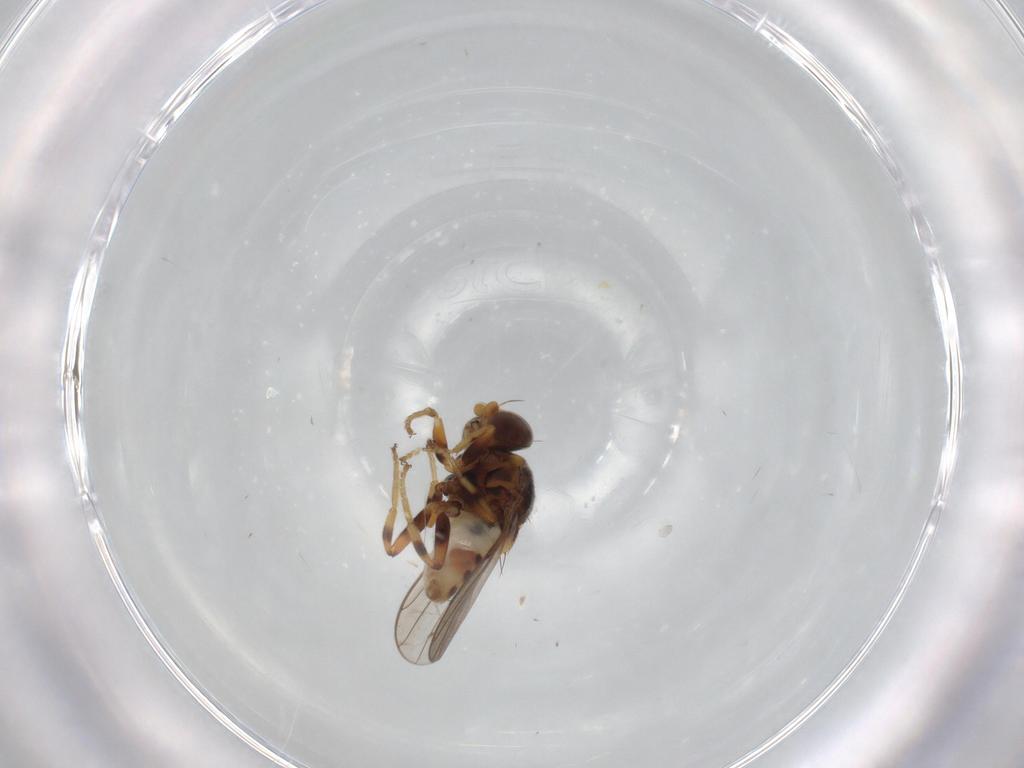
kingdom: Animalia
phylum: Arthropoda
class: Insecta
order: Diptera
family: Chloropidae
